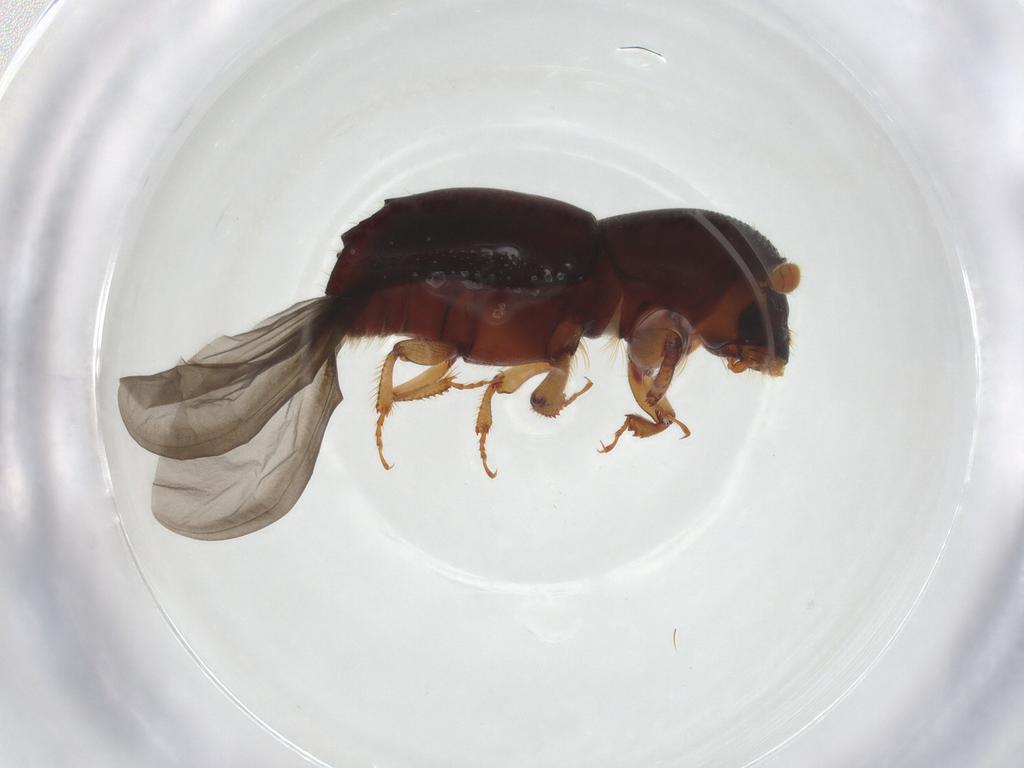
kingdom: Animalia
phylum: Arthropoda
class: Insecta
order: Coleoptera
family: Curculionidae
